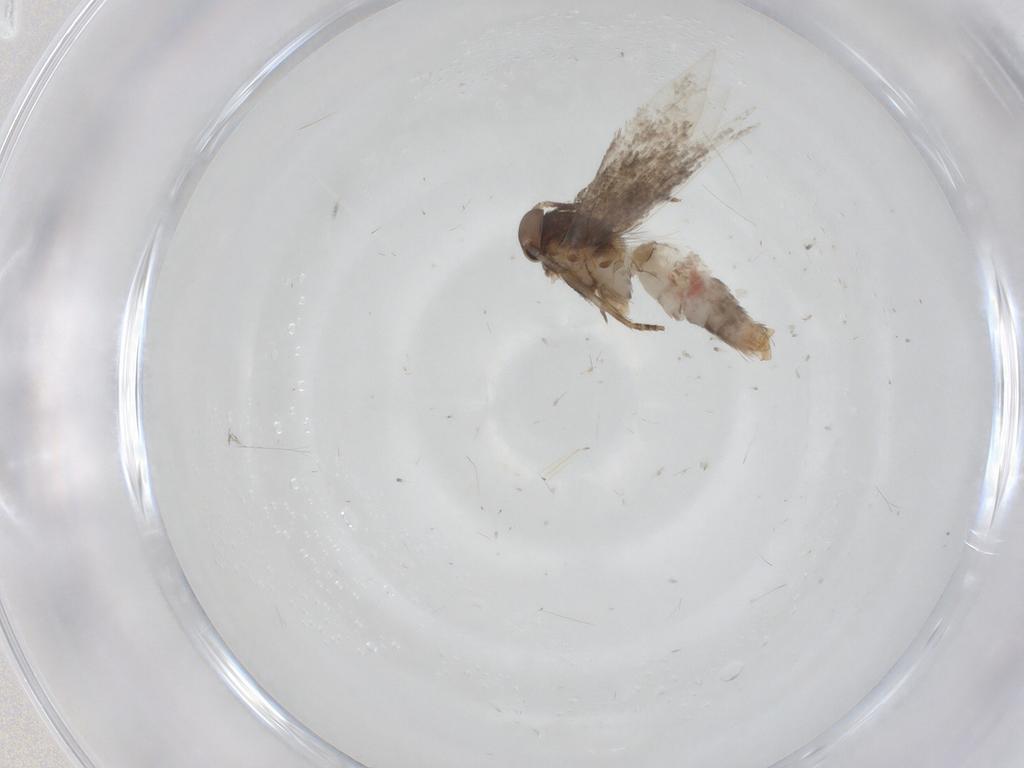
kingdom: Animalia
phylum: Arthropoda
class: Insecta
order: Lepidoptera
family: Elachistidae
